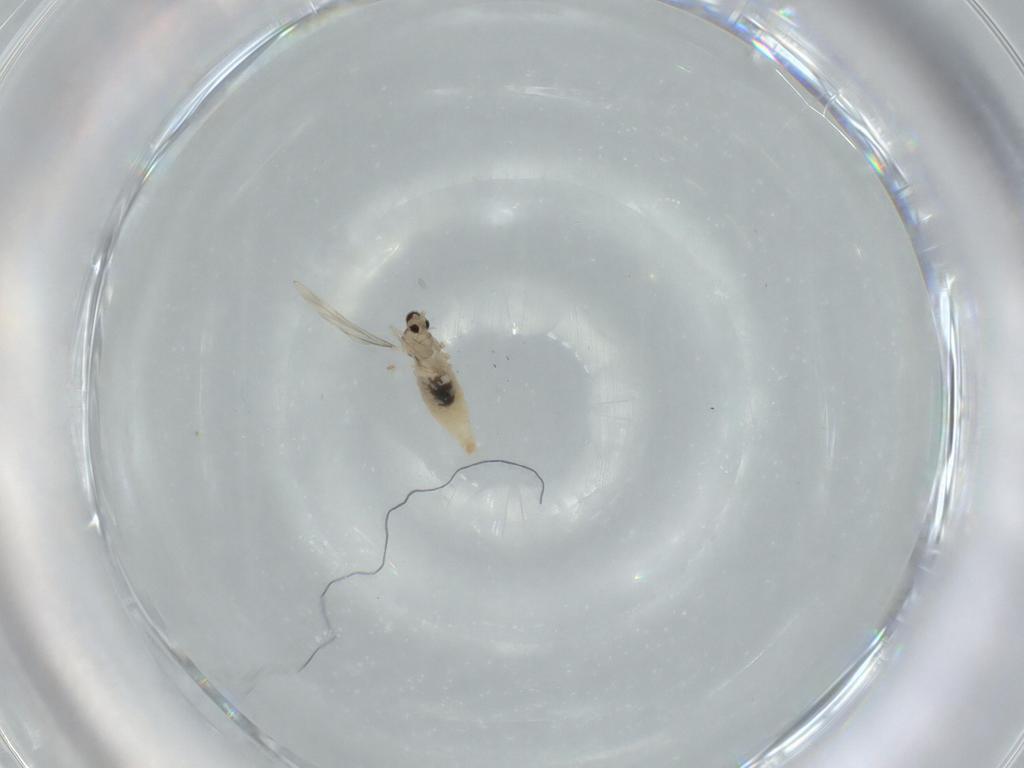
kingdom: Animalia
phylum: Arthropoda
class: Insecta
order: Diptera
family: Cecidomyiidae
